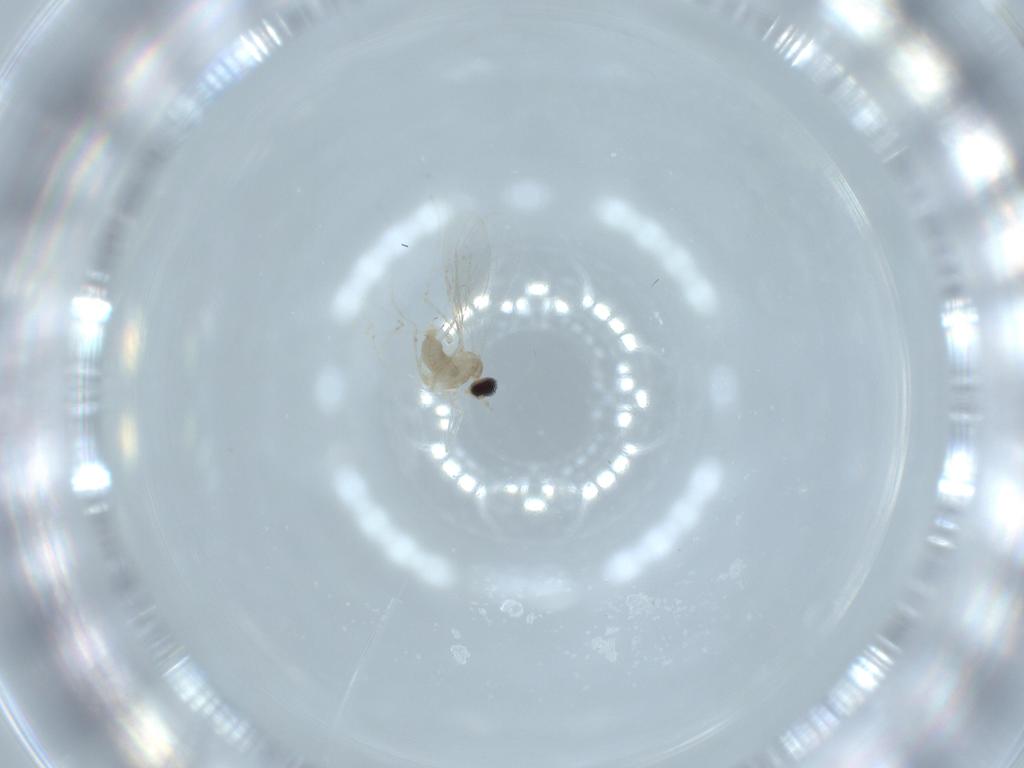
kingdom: Animalia
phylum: Arthropoda
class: Insecta
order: Diptera
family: Cecidomyiidae
